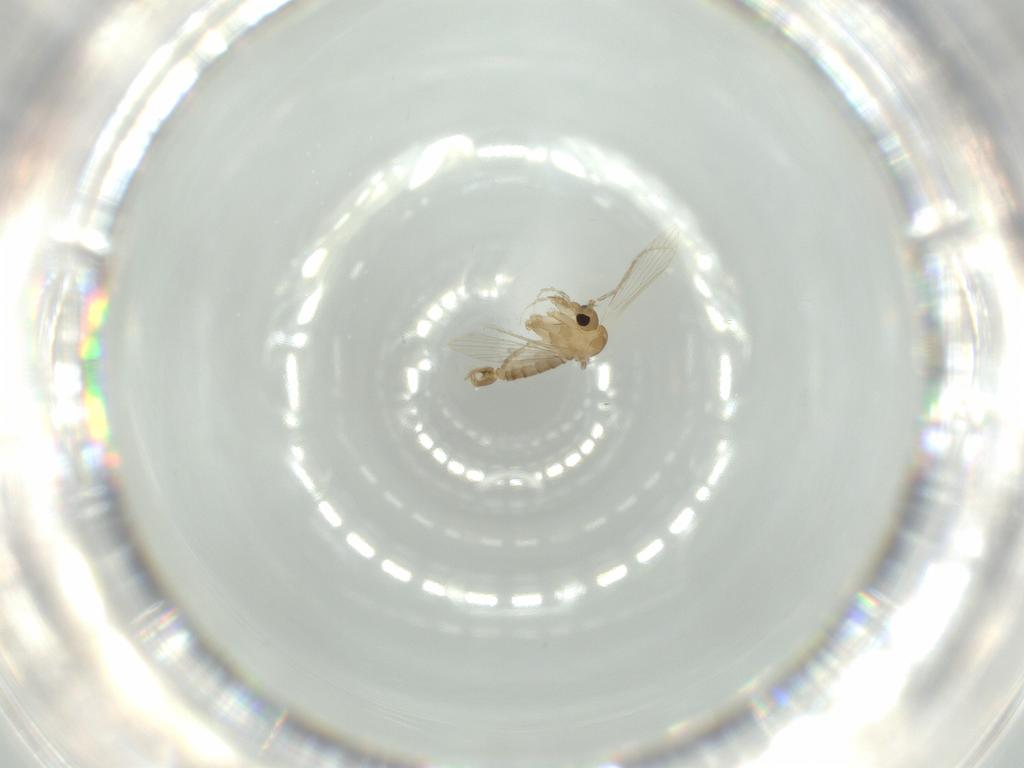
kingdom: Animalia
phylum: Arthropoda
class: Insecta
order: Diptera
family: Psychodidae
